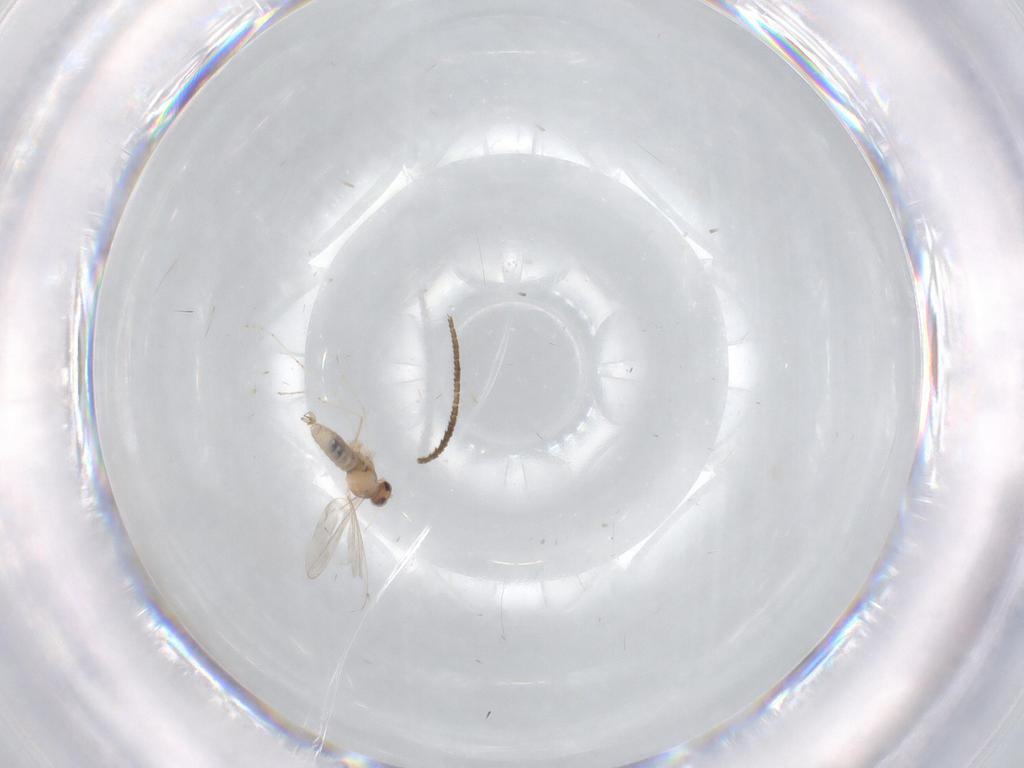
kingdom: Animalia
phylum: Arthropoda
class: Insecta
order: Diptera
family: Cecidomyiidae
